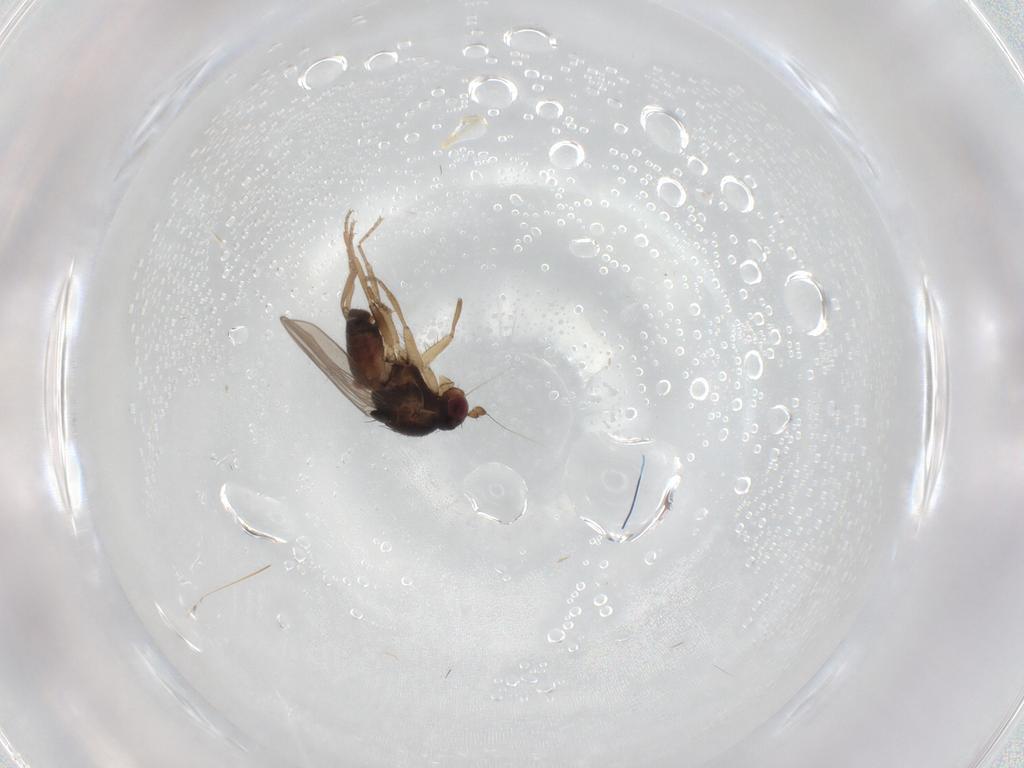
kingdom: Animalia
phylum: Arthropoda
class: Insecta
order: Diptera
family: Sphaeroceridae
